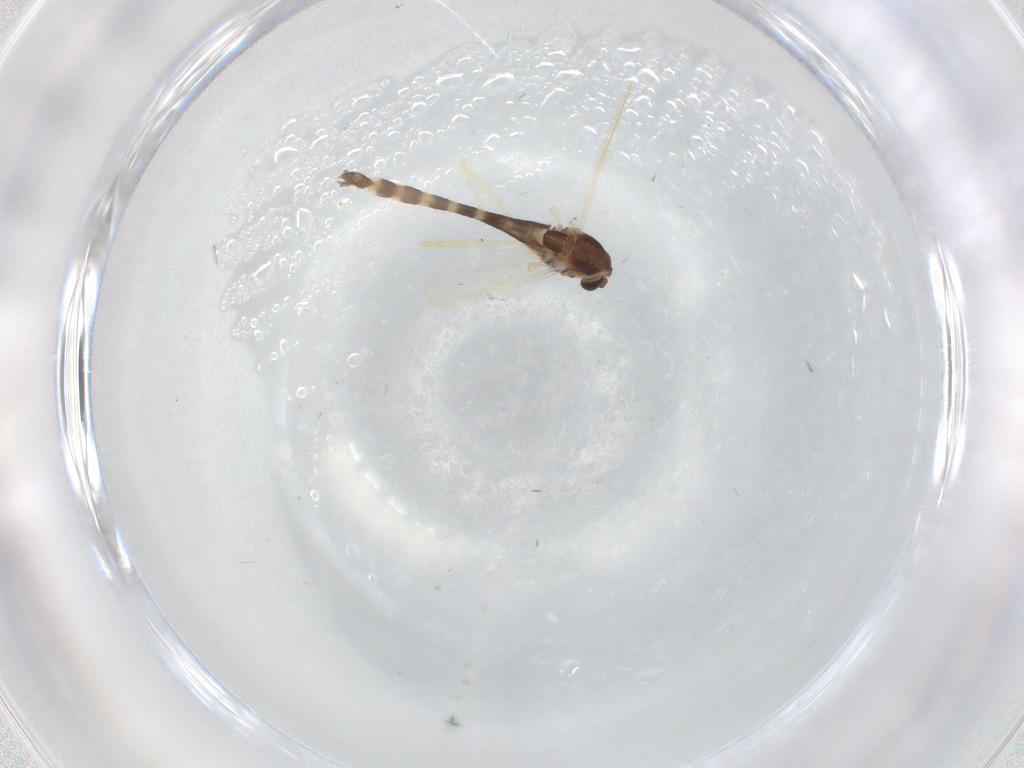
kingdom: Animalia
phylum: Arthropoda
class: Insecta
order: Diptera
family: Chironomidae
